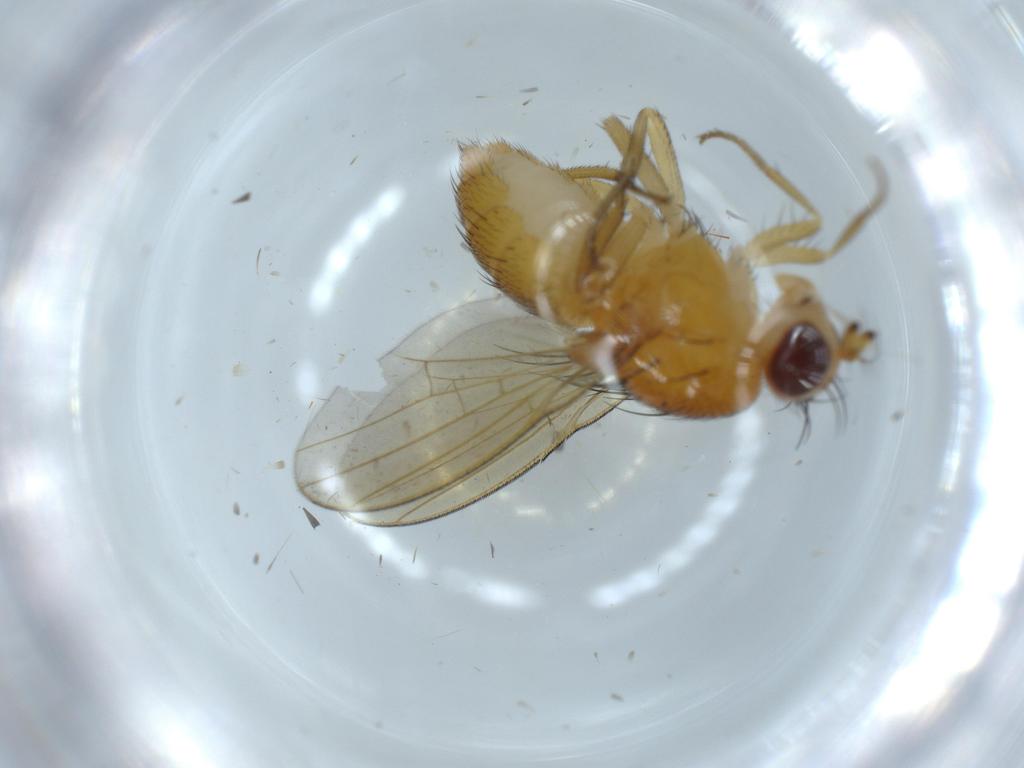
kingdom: Animalia
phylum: Arthropoda
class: Insecta
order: Diptera
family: Lauxaniidae
